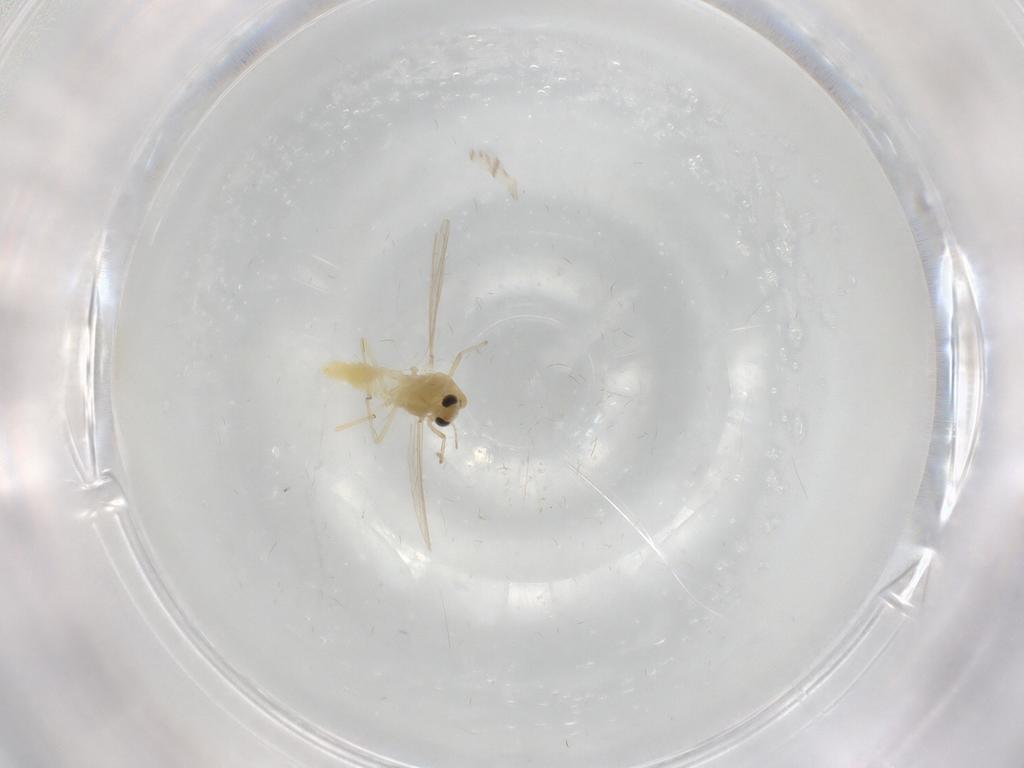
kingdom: Animalia
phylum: Arthropoda
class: Insecta
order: Diptera
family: Chironomidae
